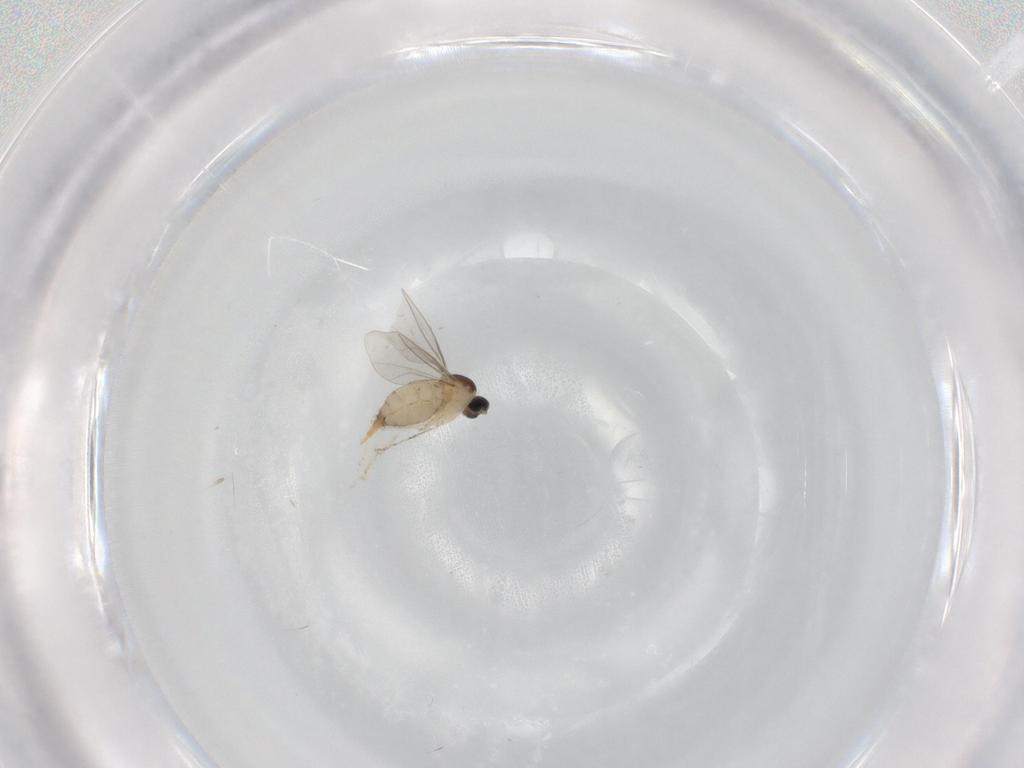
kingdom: Animalia
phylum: Arthropoda
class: Insecta
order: Diptera
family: Cecidomyiidae
